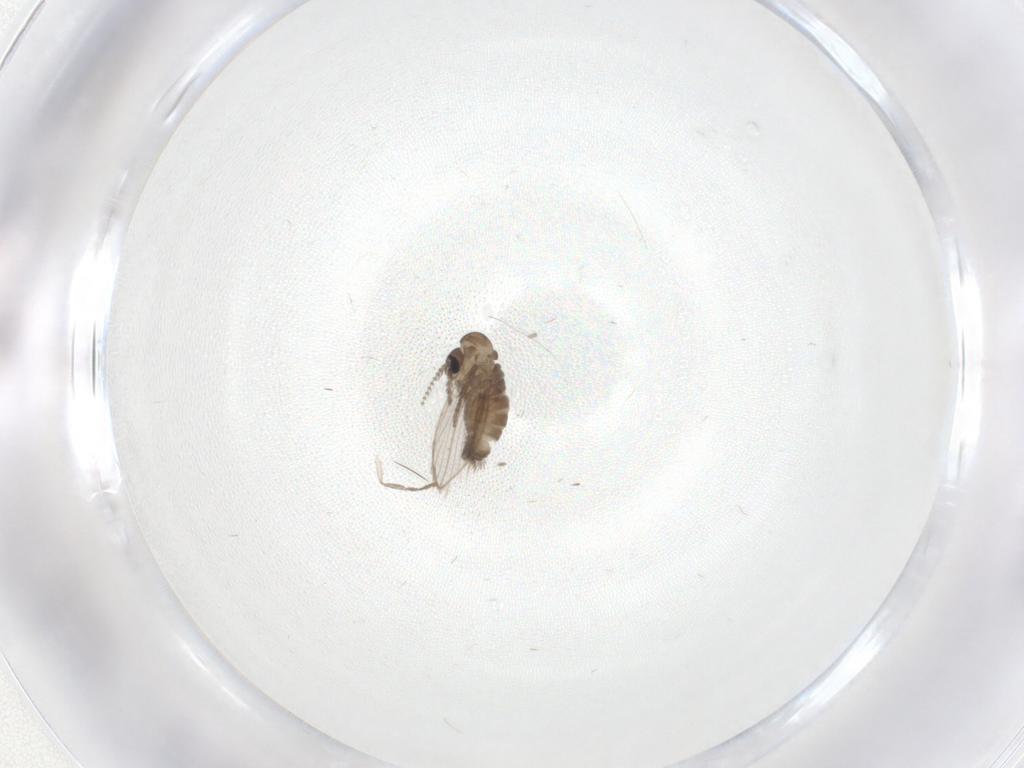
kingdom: Animalia
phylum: Arthropoda
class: Insecta
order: Diptera
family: Psychodidae
